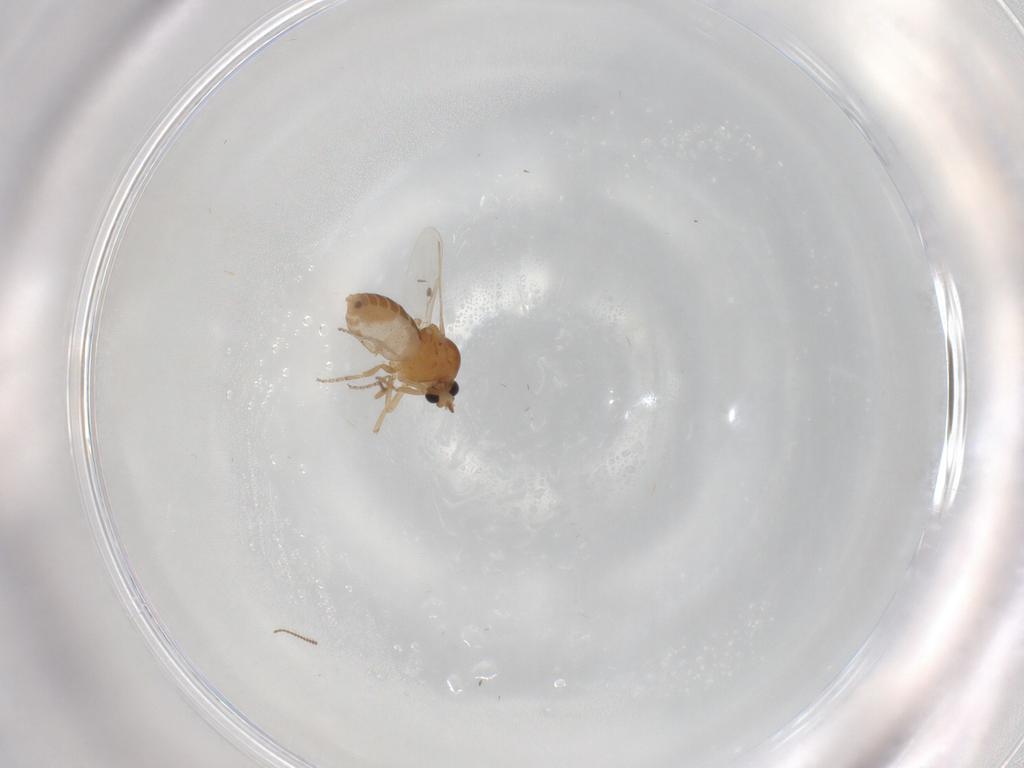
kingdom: Animalia
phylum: Arthropoda
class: Insecta
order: Diptera
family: Ceratopogonidae
